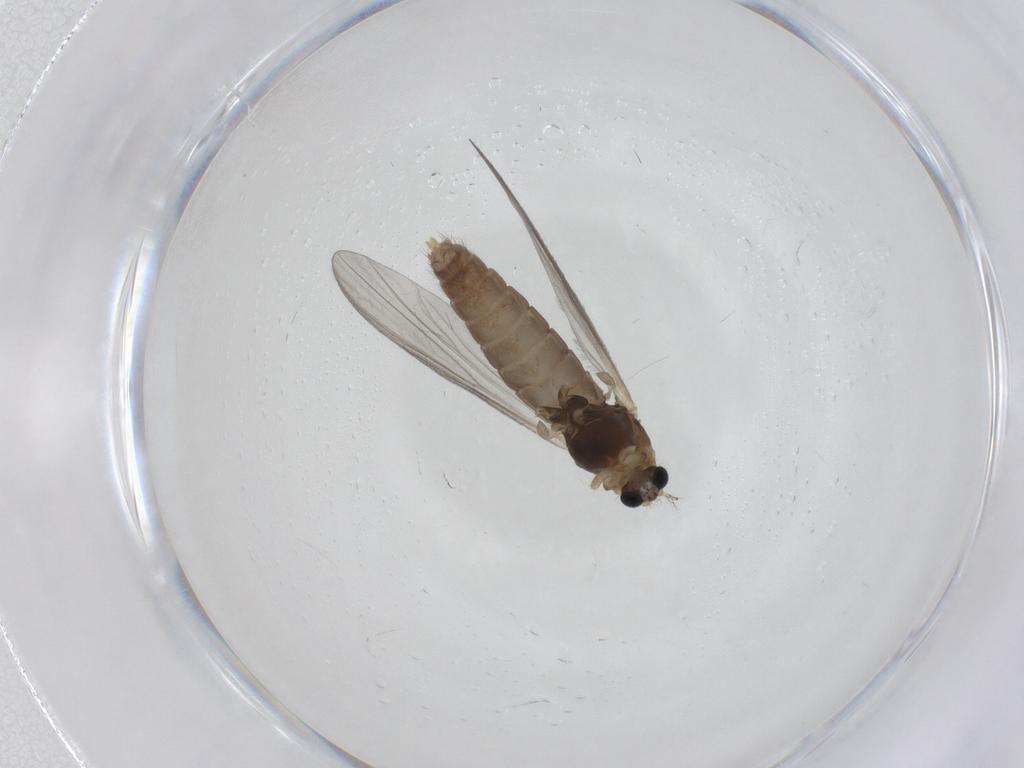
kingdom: Animalia
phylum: Arthropoda
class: Insecta
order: Diptera
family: Chironomidae
